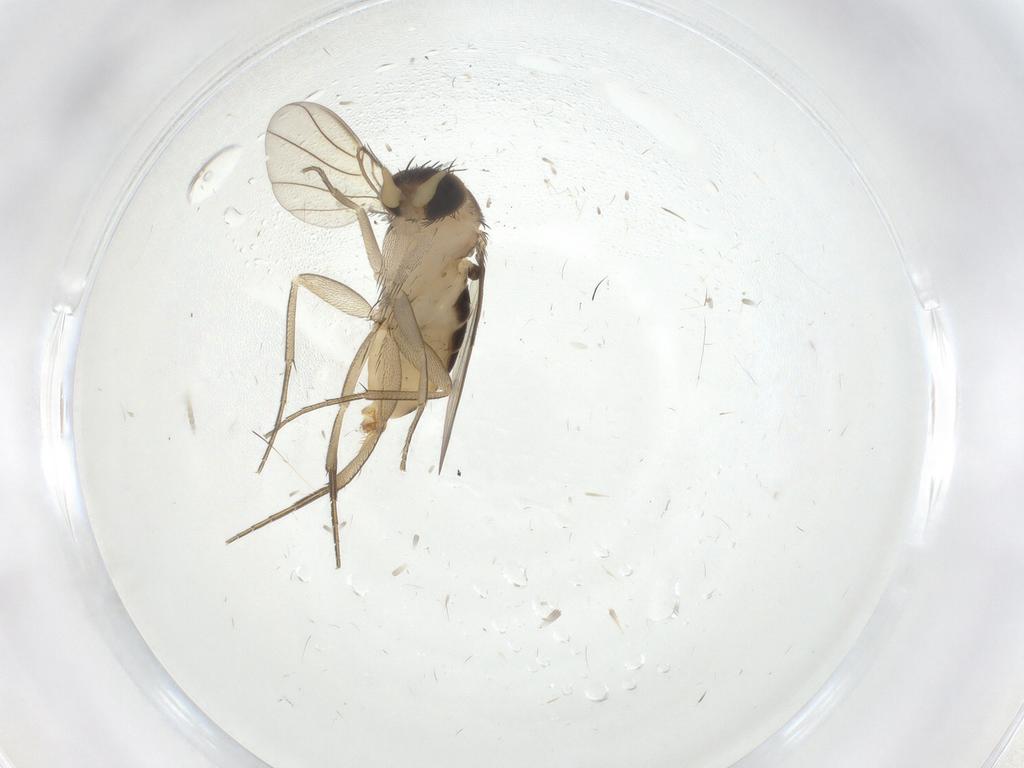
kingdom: Animalia
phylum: Arthropoda
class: Insecta
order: Diptera
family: Phoridae
